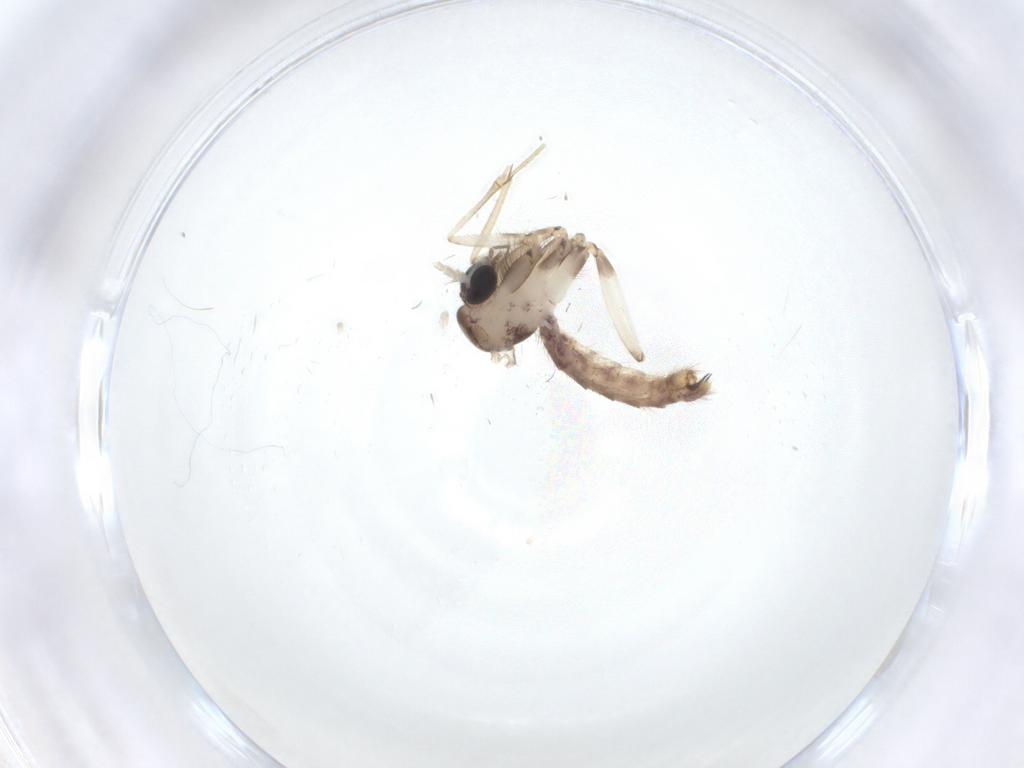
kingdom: Animalia
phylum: Arthropoda
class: Insecta
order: Diptera
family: Mycetophilidae
